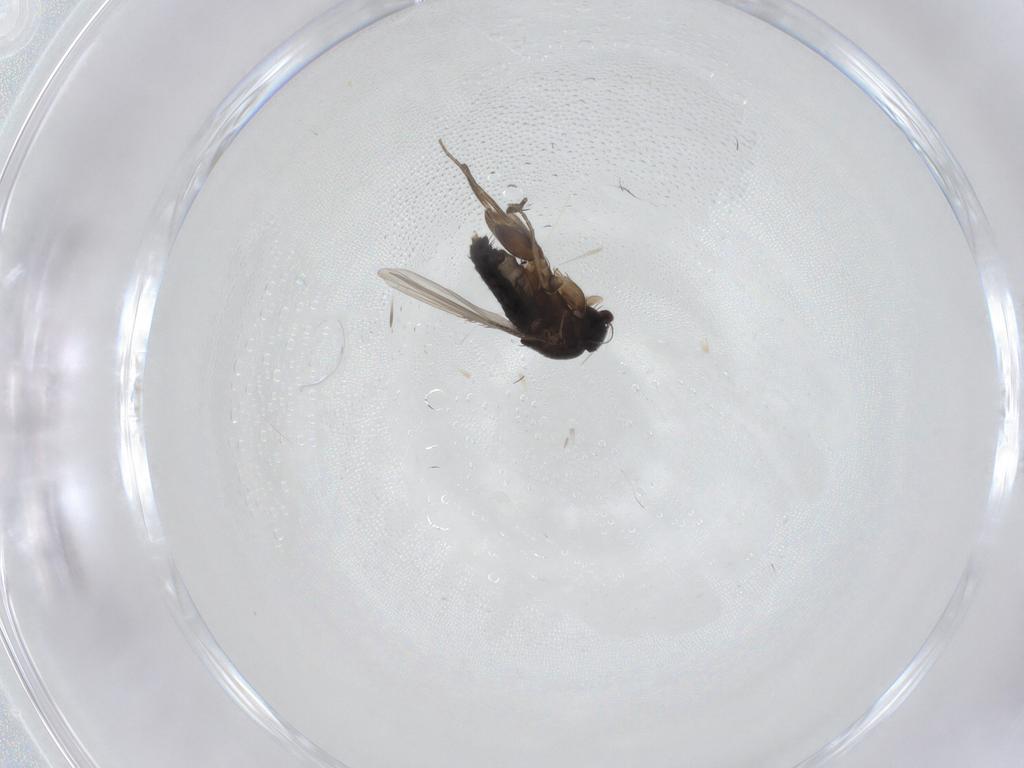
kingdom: Animalia
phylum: Arthropoda
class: Insecta
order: Diptera
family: Phoridae
